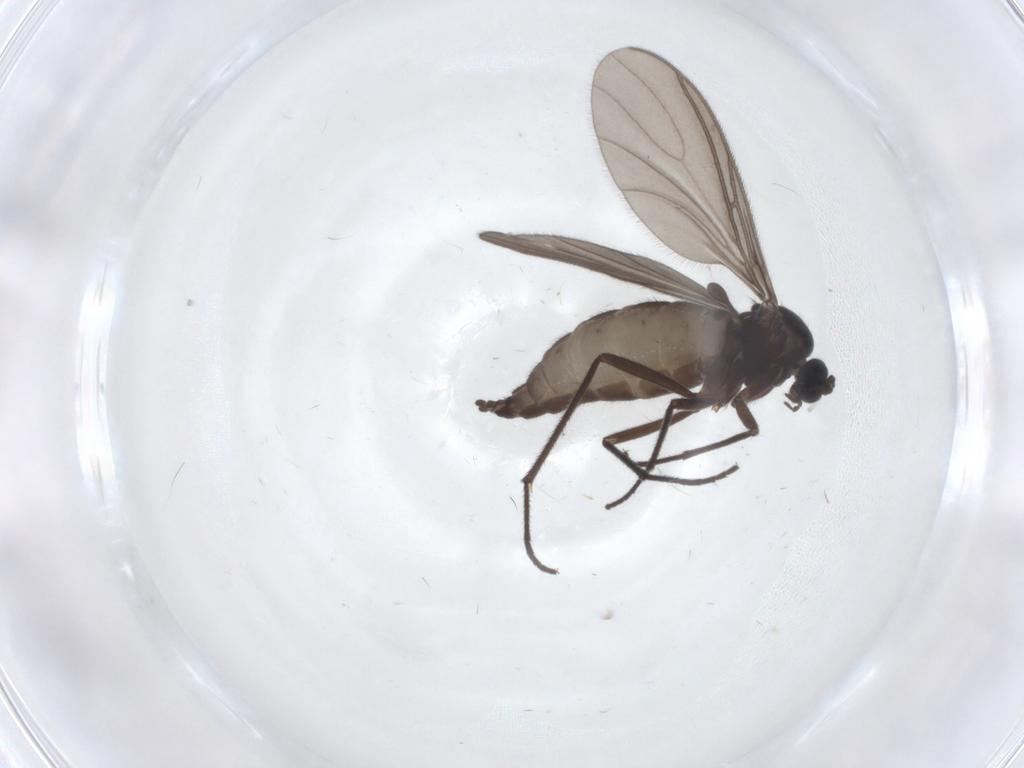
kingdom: Animalia
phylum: Arthropoda
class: Insecta
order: Diptera
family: Sciaridae
